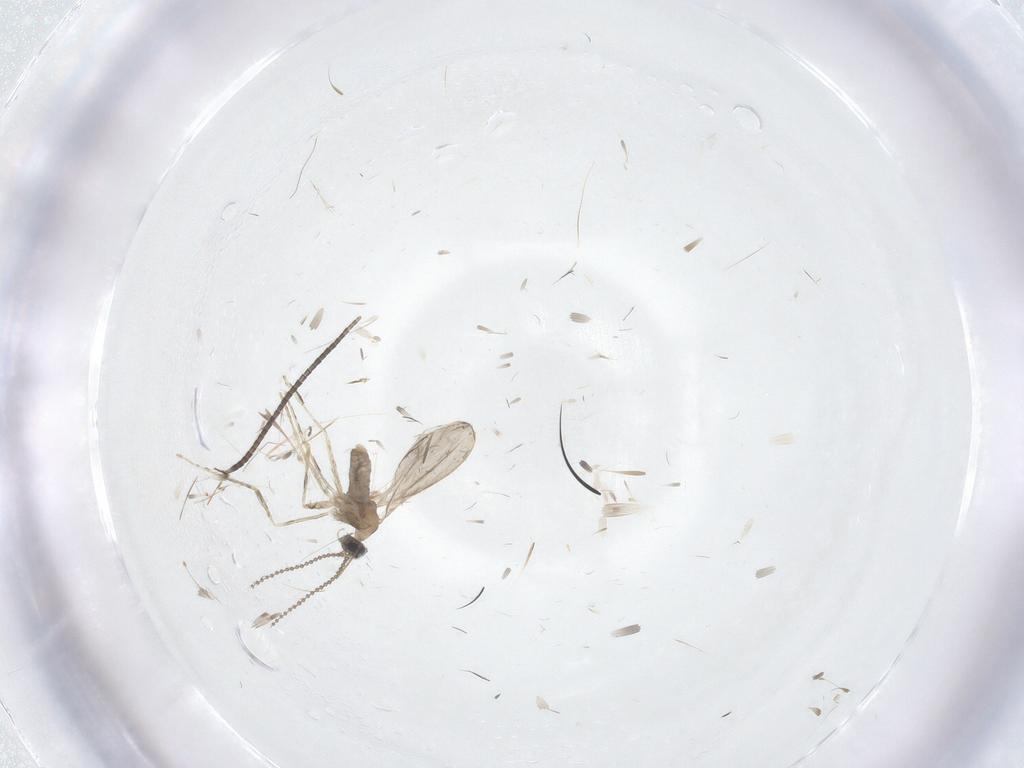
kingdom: Animalia
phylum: Arthropoda
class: Insecta
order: Diptera
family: Cecidomyiidae
